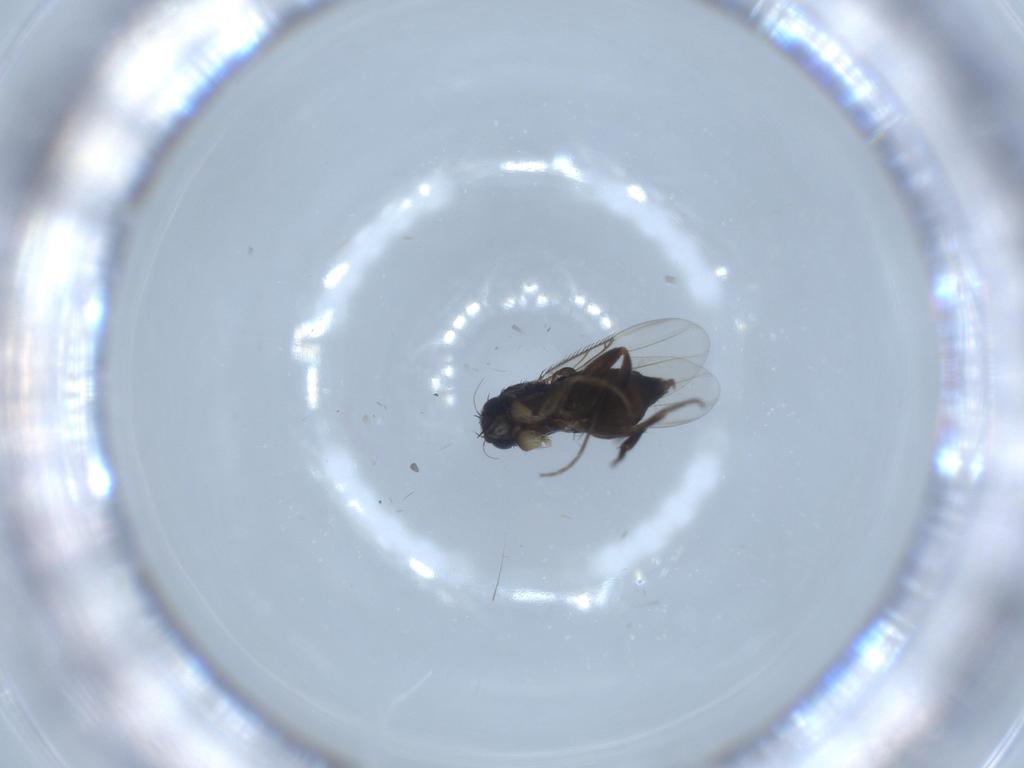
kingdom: Animalia
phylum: Arthropoda
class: Insecta
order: Diptera
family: Phoridae
